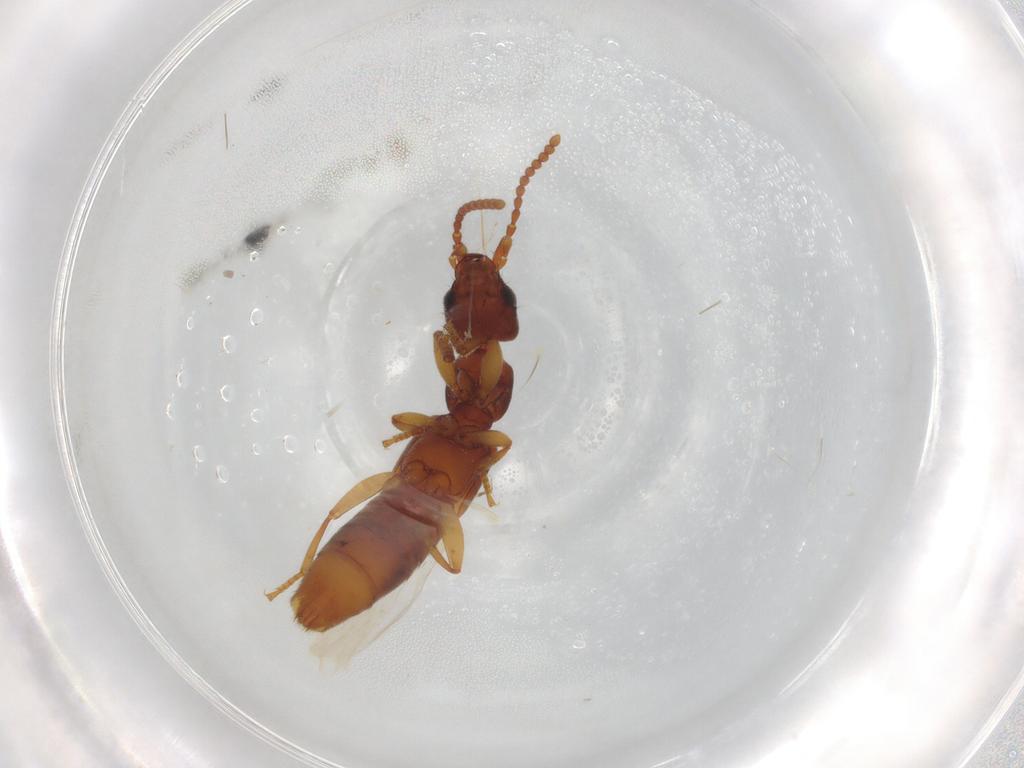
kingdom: Animalia
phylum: Arthropoda
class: Insecta
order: Coleoptera
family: Staphylinidae
